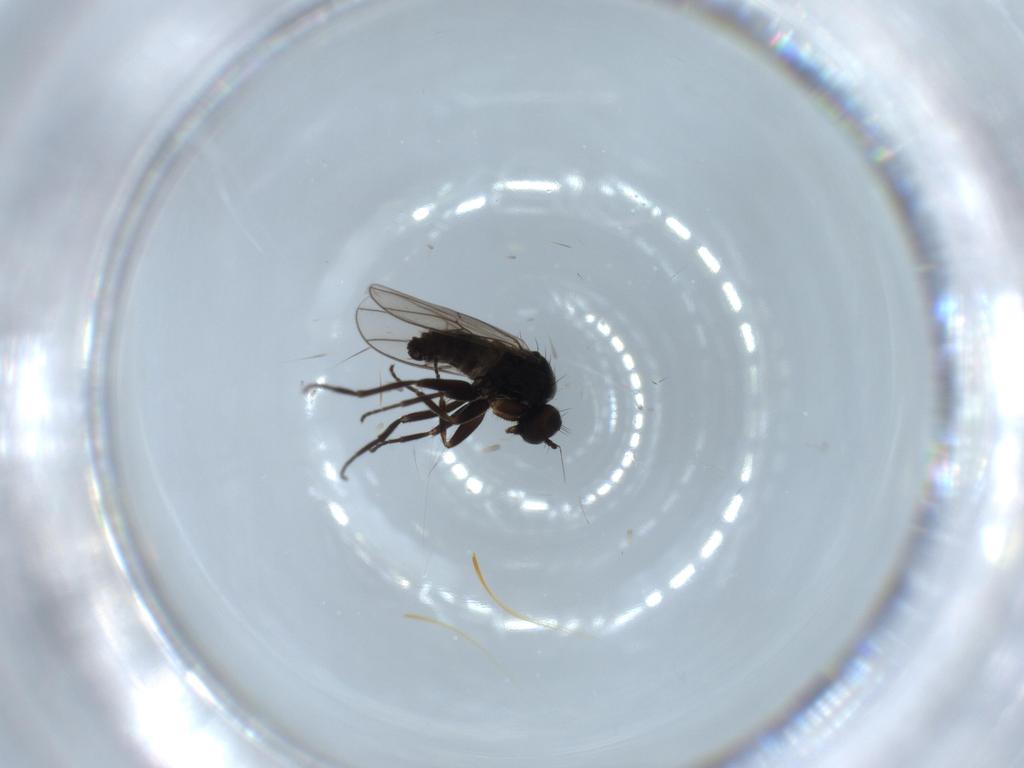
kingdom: Animalia
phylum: Arthropoda
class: Insecta
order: Diptera
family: Hybotidae
